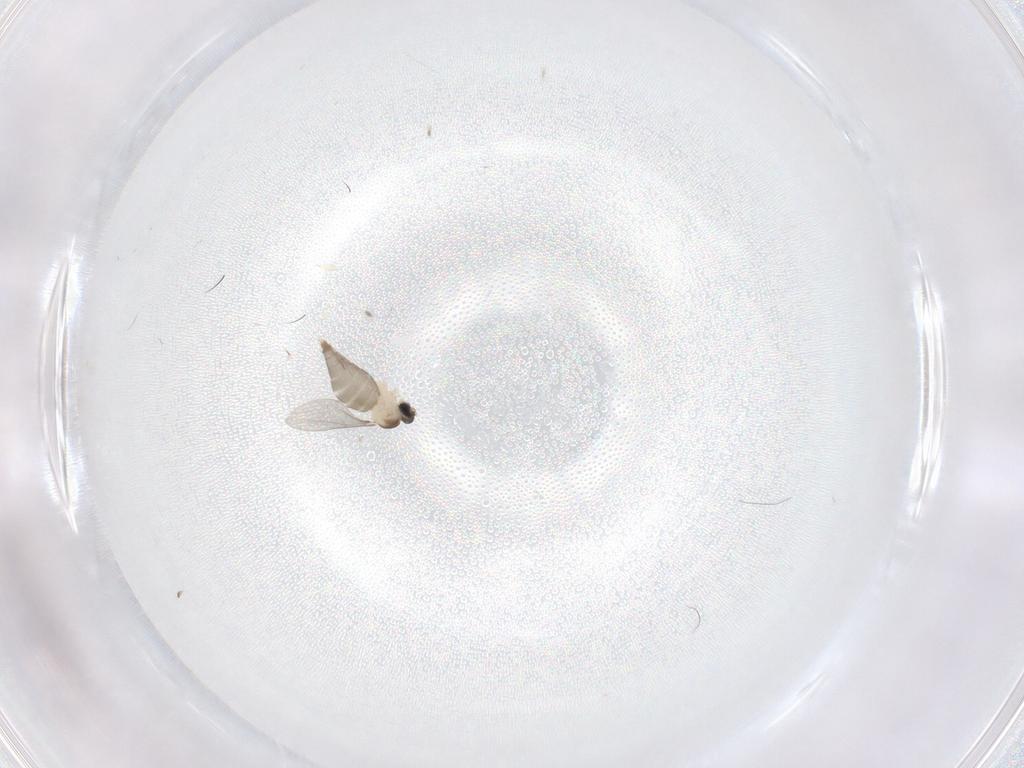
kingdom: Animalia
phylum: Arthropoda
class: Insecta
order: Diptera
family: Cecidomyiidae
